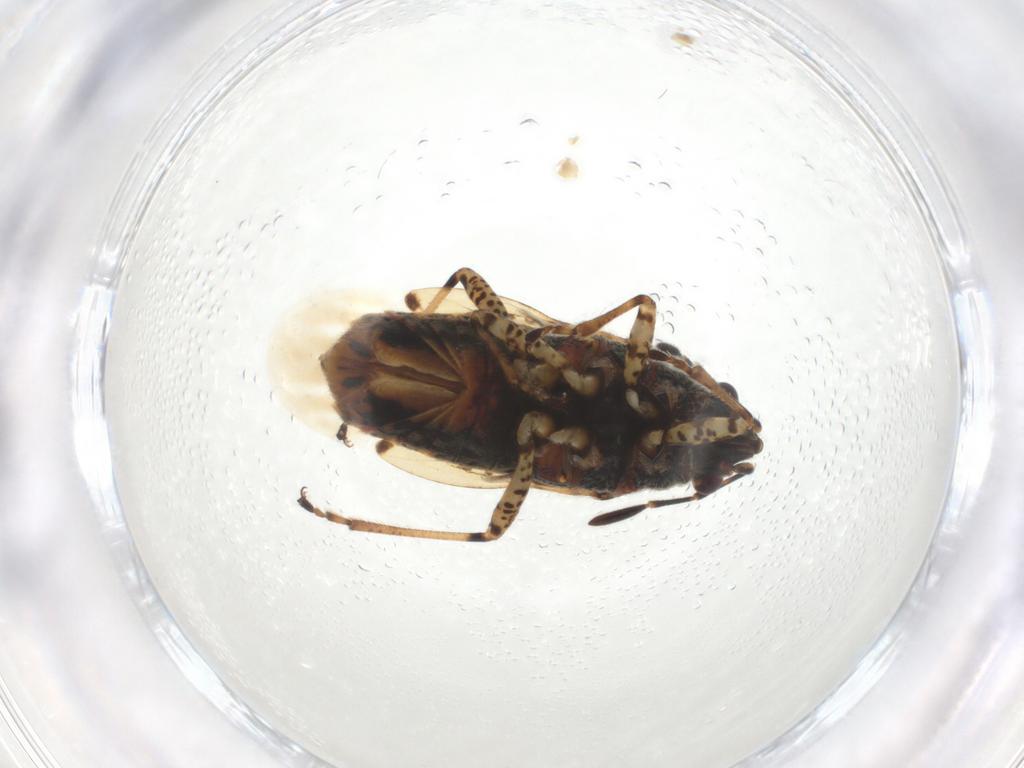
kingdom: Animalia
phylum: Arthropoda
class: Insecta
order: Hemiptera
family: Lygaeidae
